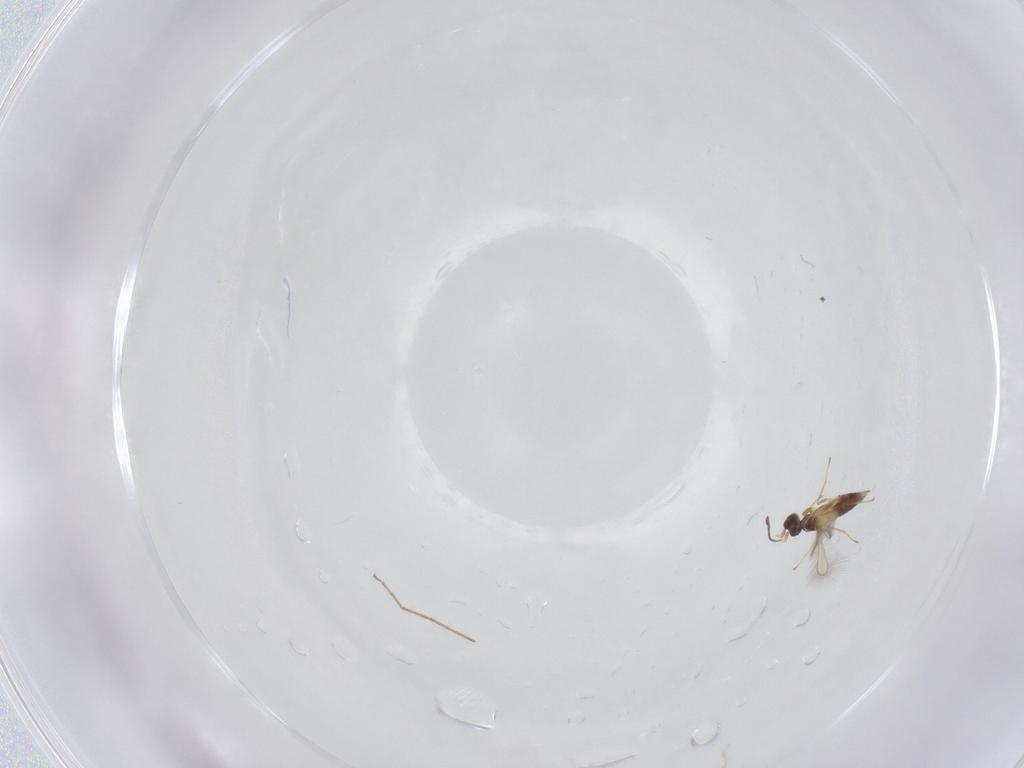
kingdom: Animalia
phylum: Arthropoda
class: Insecta
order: Hymenoptera
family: Mymaridae
